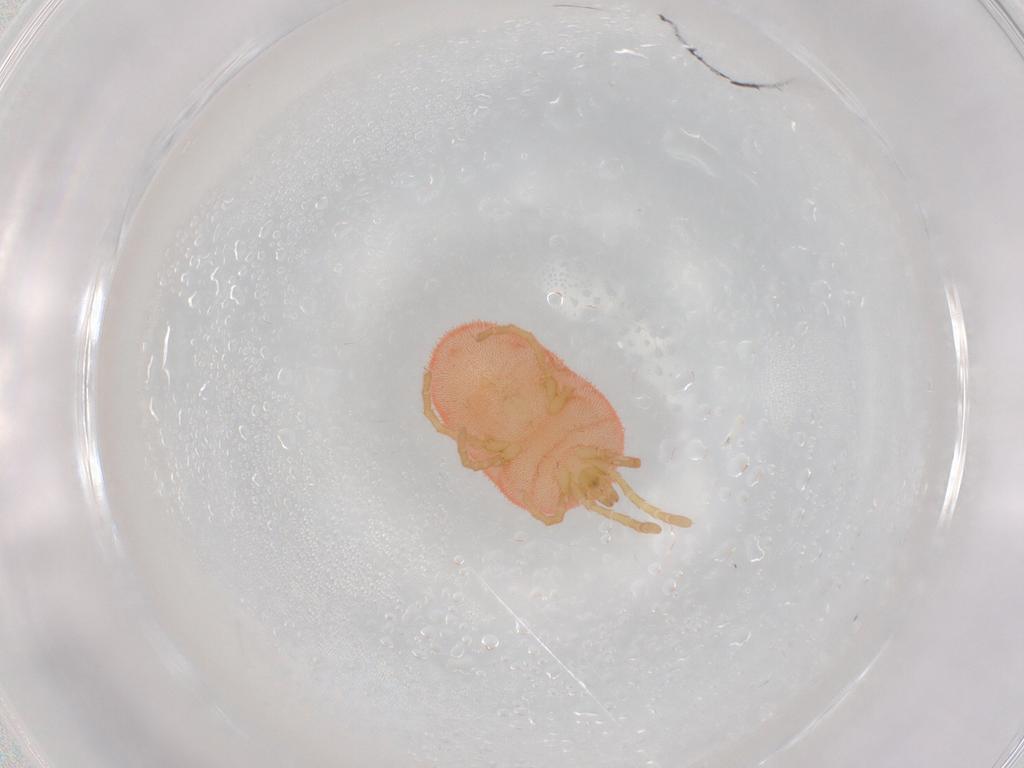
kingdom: Animalia
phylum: Arthropoda
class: Arachnida
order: Trombidiformes
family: Trombidiidae
